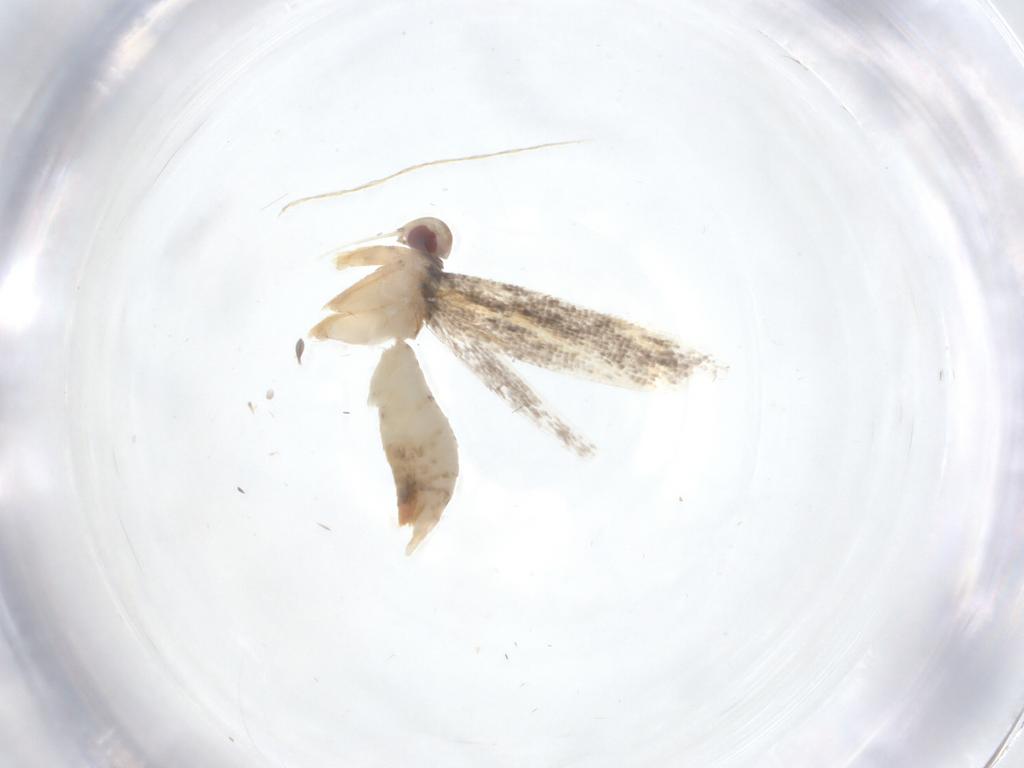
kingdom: Animalia
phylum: Arthropoda
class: Insecta
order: Lepidoptera
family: Plutellidae
